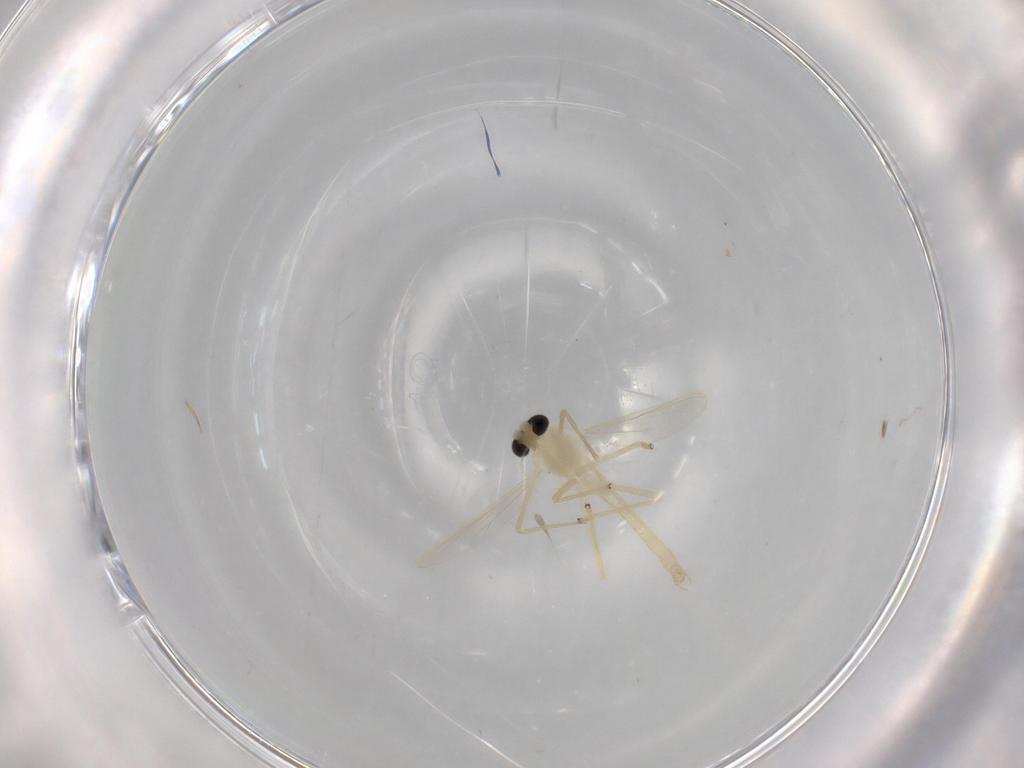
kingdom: Animalia
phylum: Arthropoda
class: Insecta
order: Diptera
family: Chironomidae
